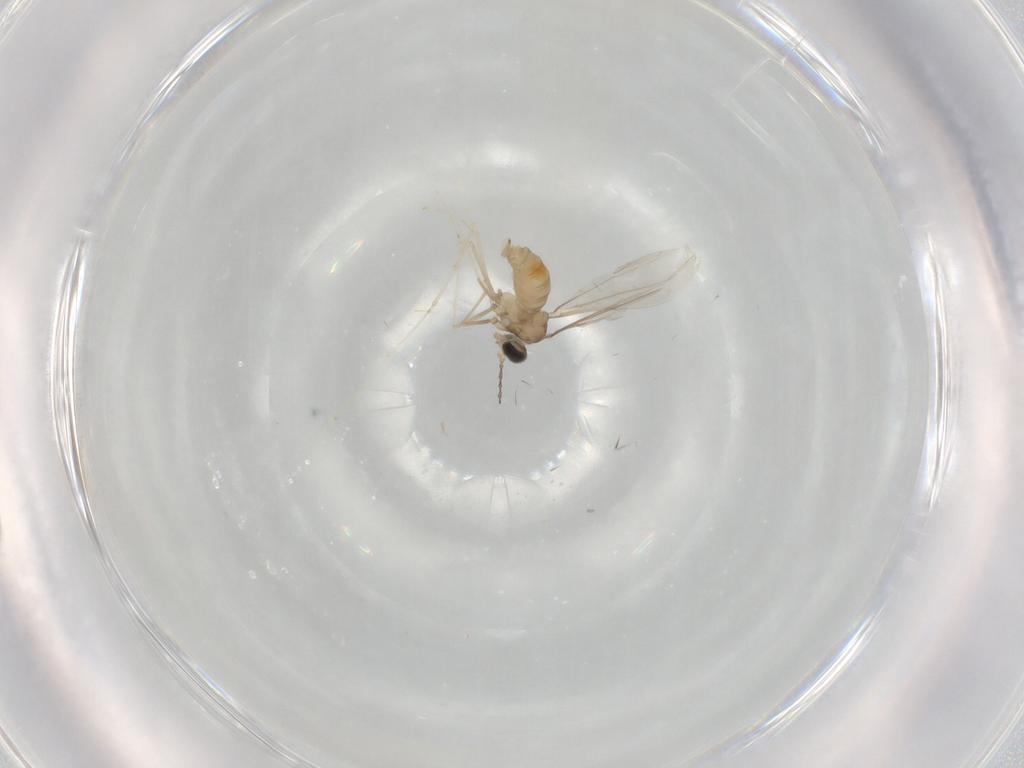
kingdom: Animalia
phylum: Arthropoda
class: Insecta
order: Diptera
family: Cecidomyiidae
